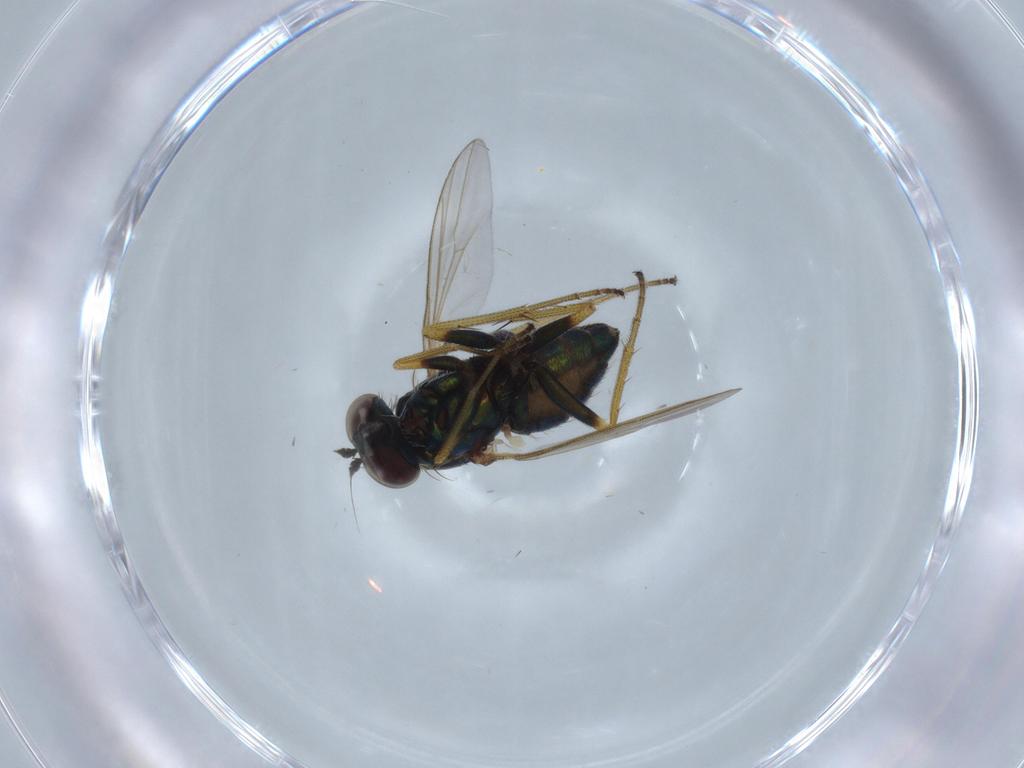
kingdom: Animalia
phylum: Arthropoda
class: Insecta
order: Diptera
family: Dolichopodidae
